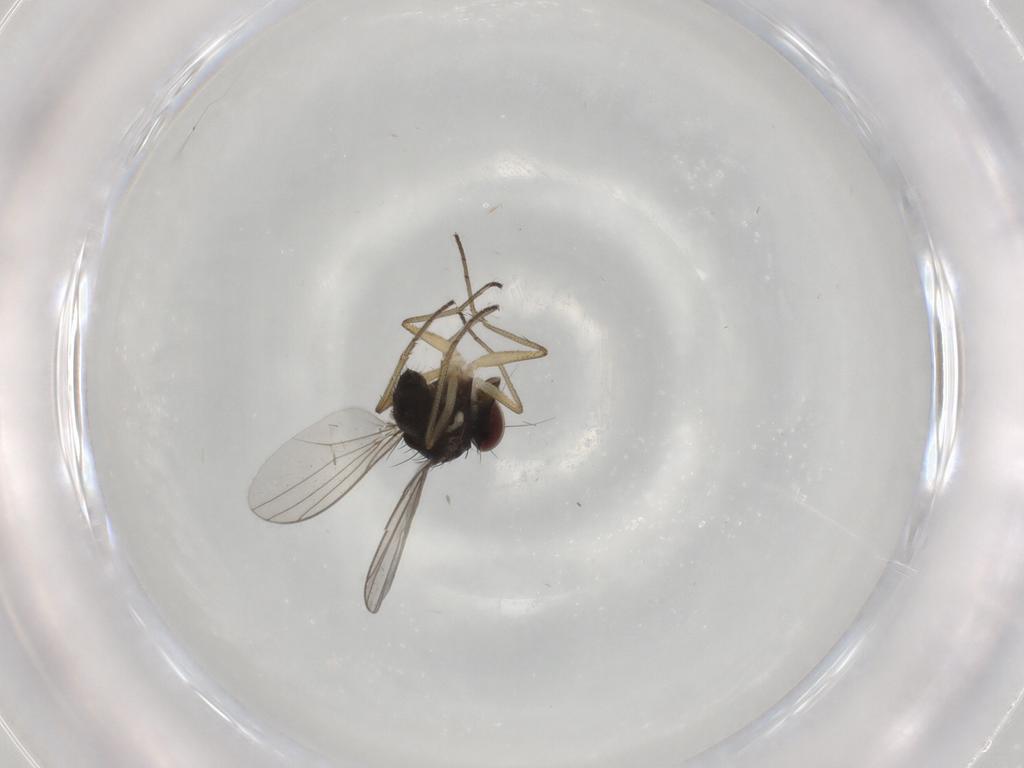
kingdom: Animalia
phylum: Arthropoda
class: Insecta
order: Diptera
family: Dolichopodidae
